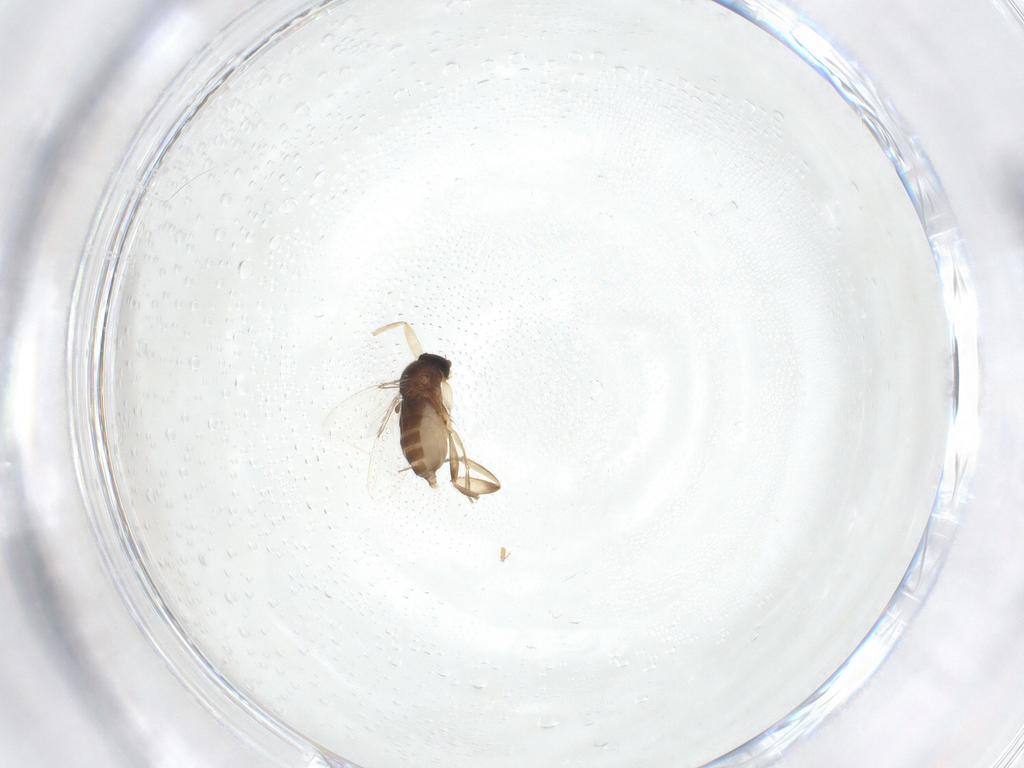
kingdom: Animalia
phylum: Arthropoda
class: Insecta
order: Diptera
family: Phoridae
